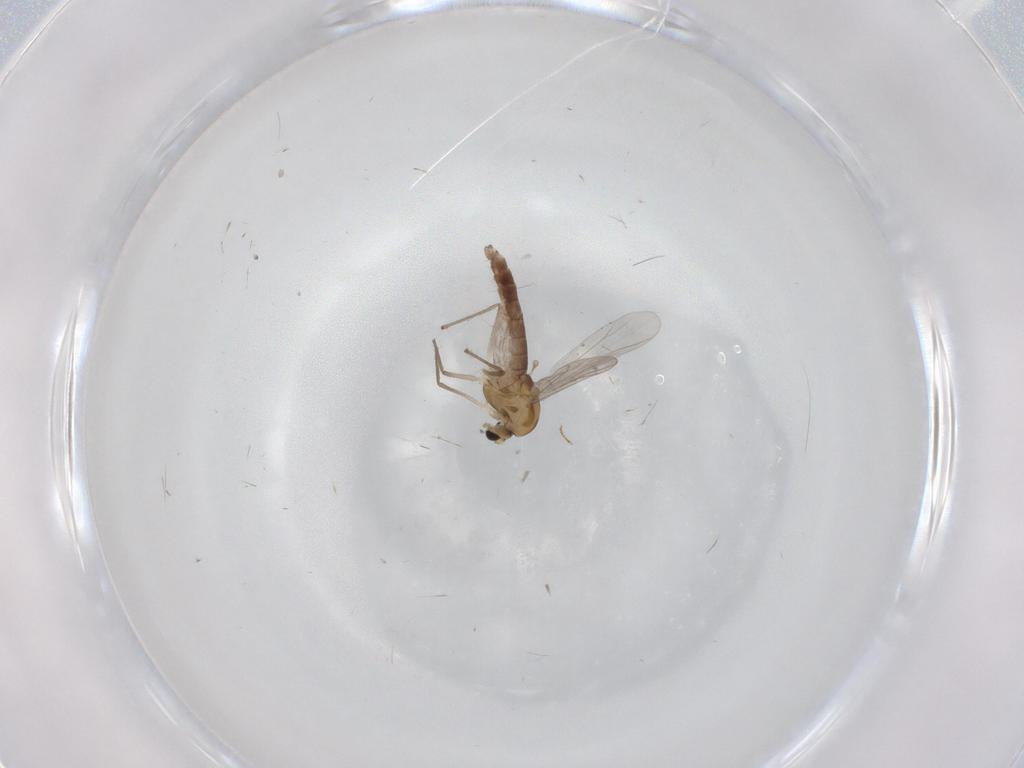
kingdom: Animalia
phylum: Arthropoda
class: Insecta
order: Diptera
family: Chironomidae
